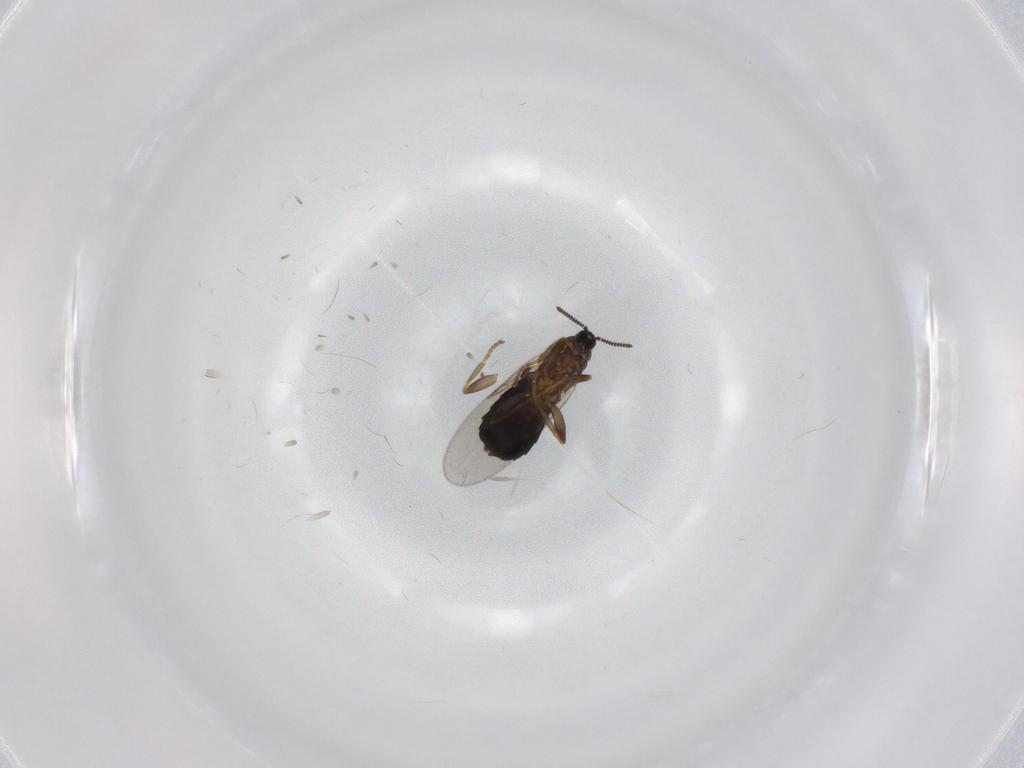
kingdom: Animalia
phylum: Arthropoda
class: Insecta
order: Diptera
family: Scatopsidae
